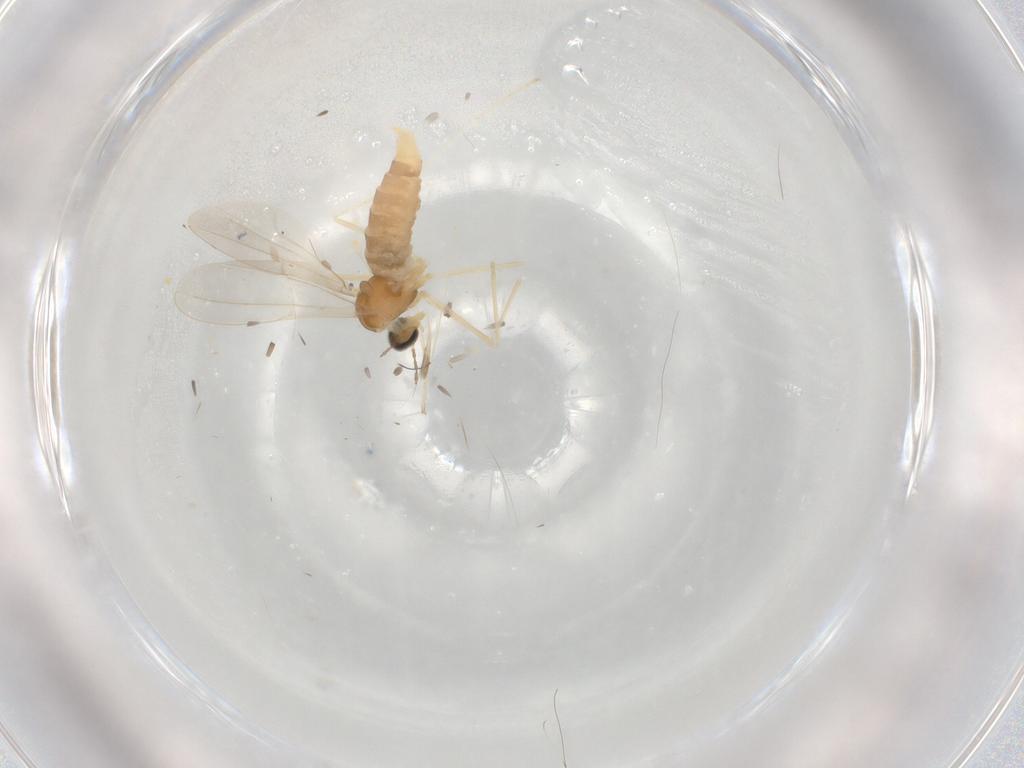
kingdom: Animalia
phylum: Arthropoda
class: Insecta
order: Diptera
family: Cecidomyiidae
